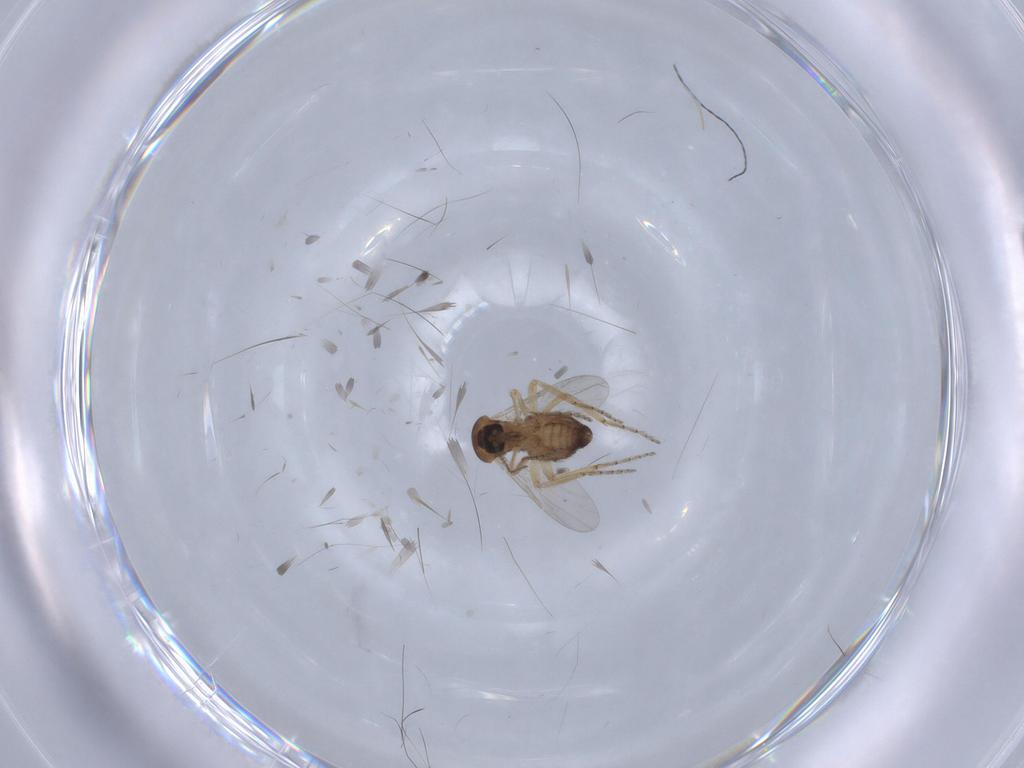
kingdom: Animalia
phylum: Arthropoda
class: Insecta
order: Diptera
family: Ceratopogonidae
